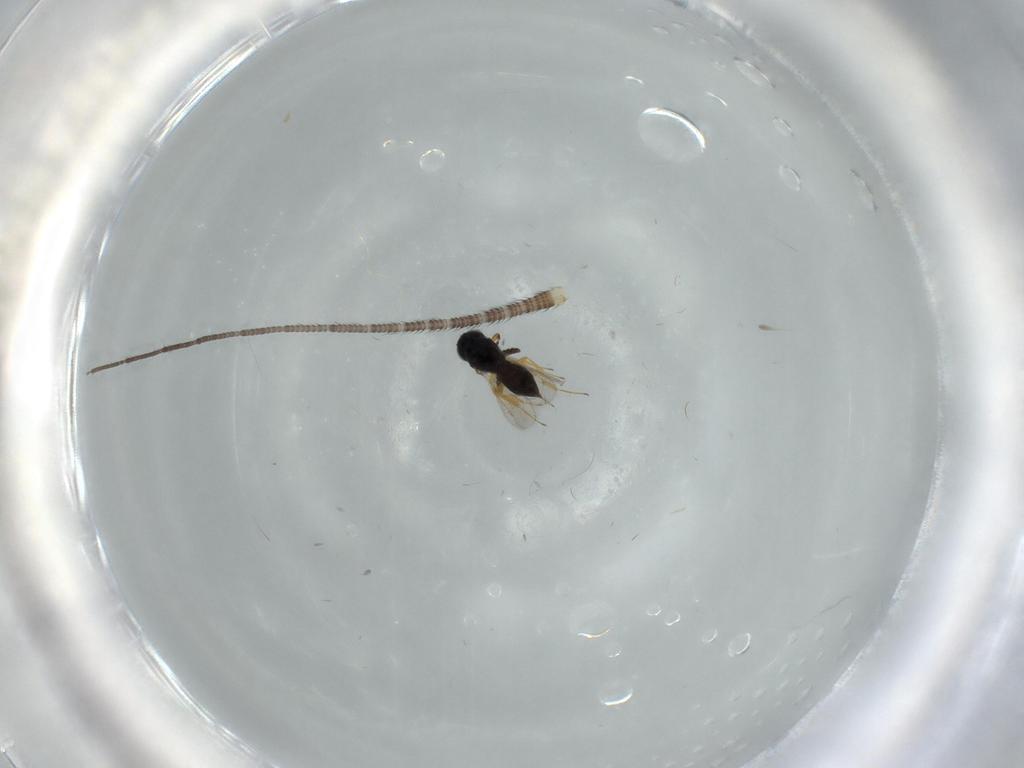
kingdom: Animalia
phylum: Arthropoda
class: Insecta
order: Hymenoptera
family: Scelionidae
